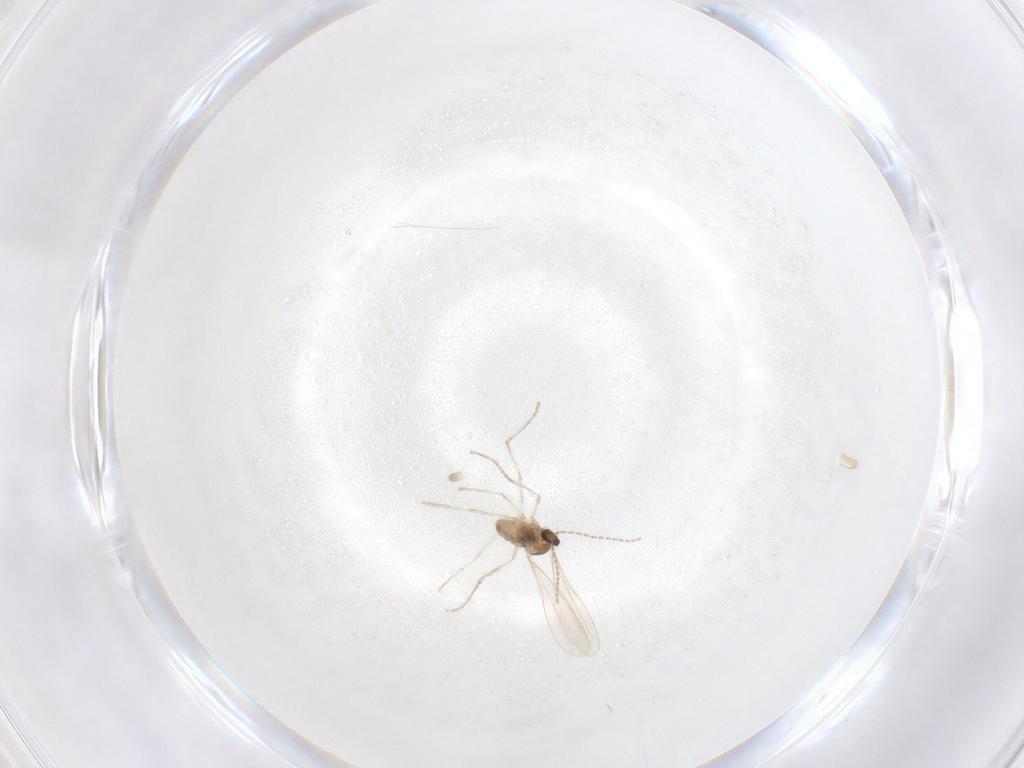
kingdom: Animalia
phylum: Arthropoda
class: Insecta
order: Diptera
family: Cecidomyiidae
